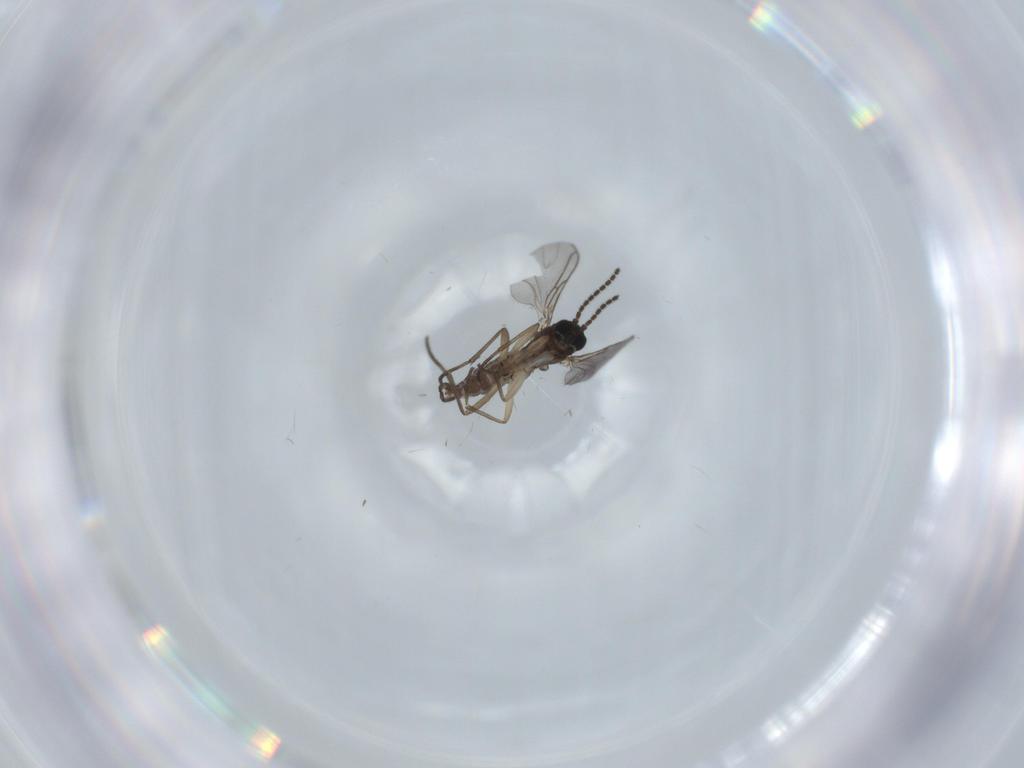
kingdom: Animalia
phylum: Arthropoda
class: Insecta
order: Diptera
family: Sciaridae
